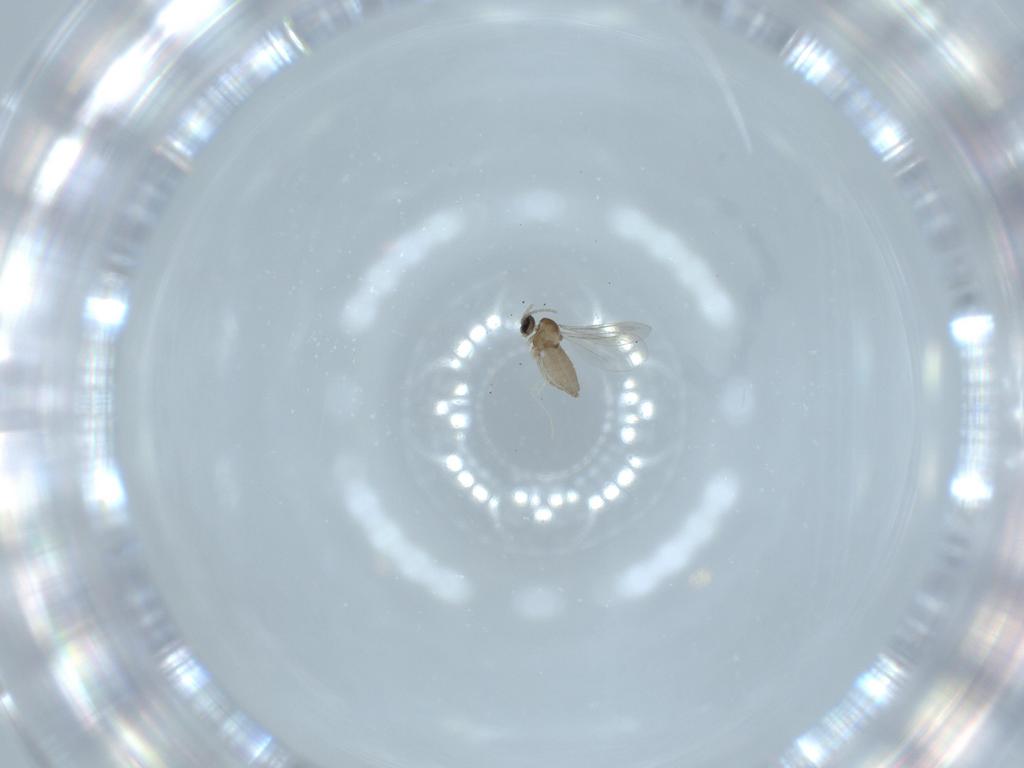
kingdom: Animalia
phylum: Arthropoda
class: Insecta
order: Diptera
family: Cecidomyiidae
